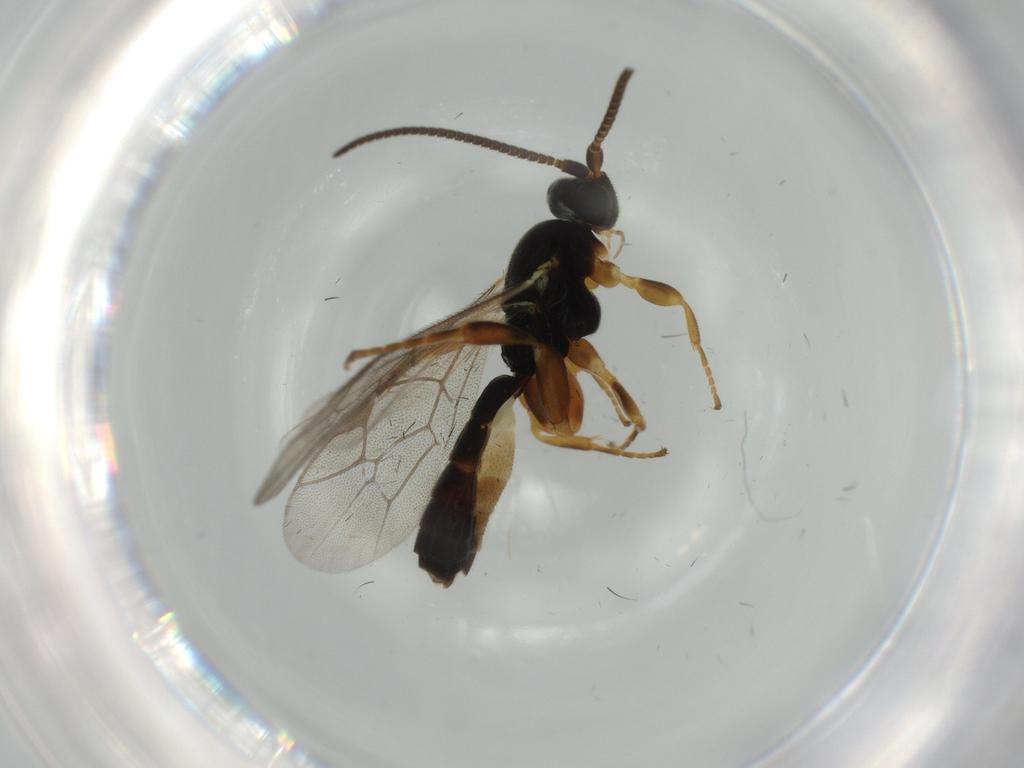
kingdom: Animalia
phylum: Arthropoda
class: Insecta
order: Hymenoptera
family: Ichneumonidae
